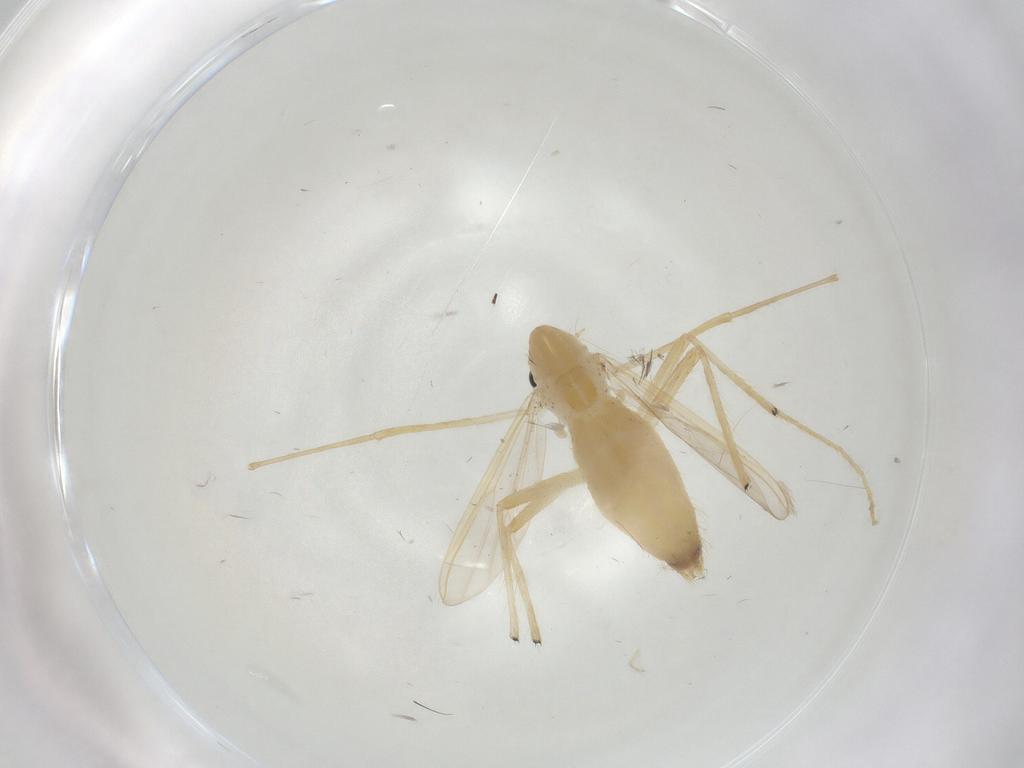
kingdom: Animalia
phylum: Arthropoda
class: Insecta
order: Diptera
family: Chironomidae
